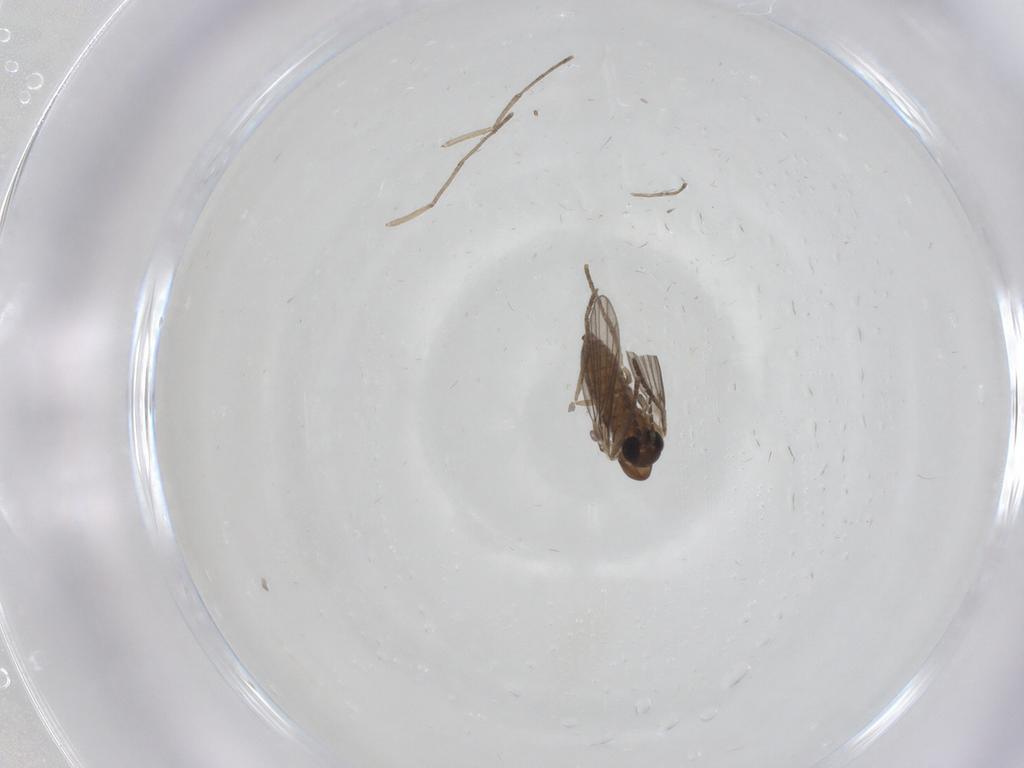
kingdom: Animalia
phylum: Arthropoda
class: Insecta
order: Diptera
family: Cecidomyiidae
